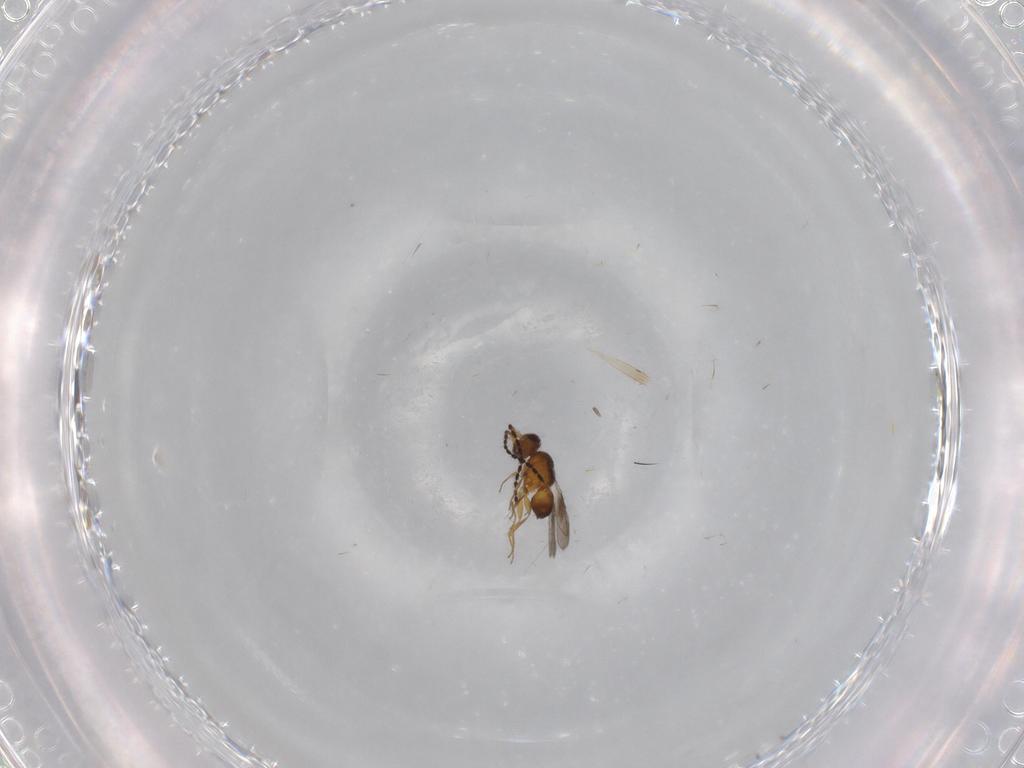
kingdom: Animalia
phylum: Arthropoda
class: Insecta
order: Hymenoptera
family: Ceraphronidae
